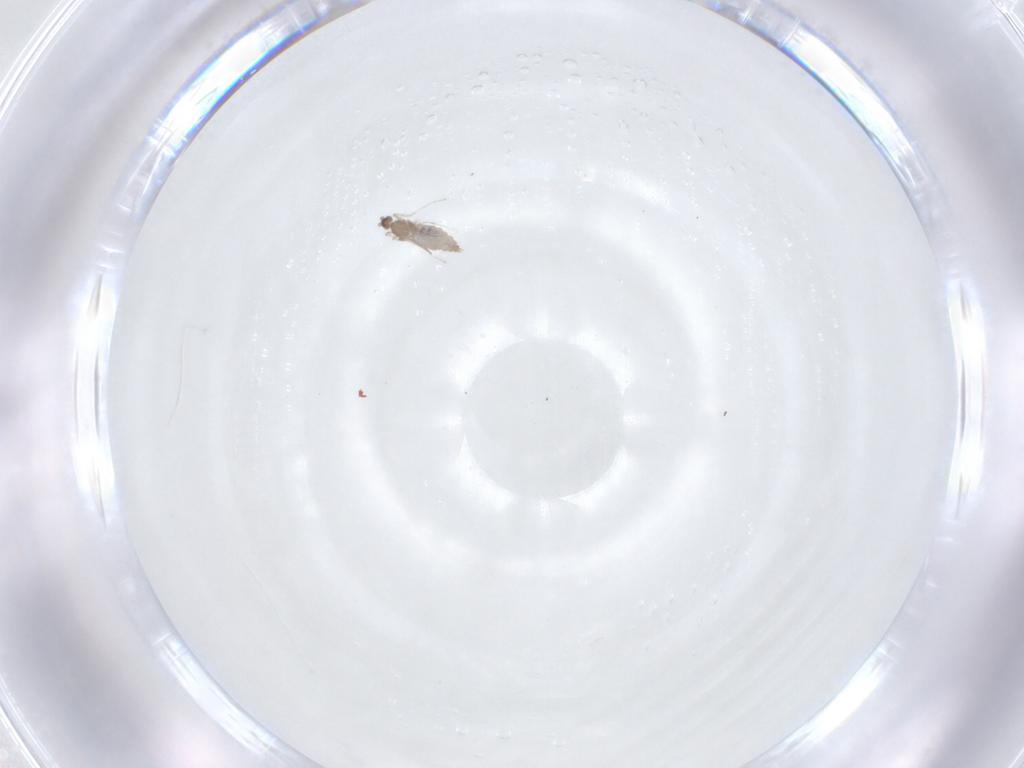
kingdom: Animalia
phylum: Arthropoda
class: Insecta
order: Diptera
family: Chironomidae
